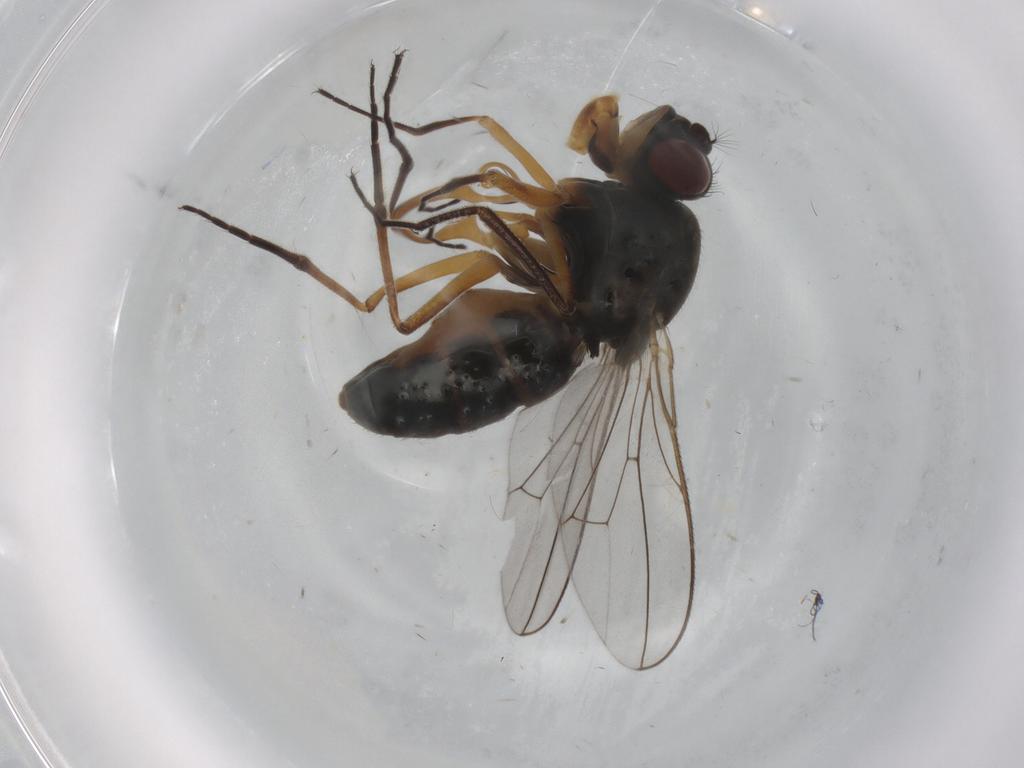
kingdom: Animalia
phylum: Arthropoda
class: Insecta
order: Diptera
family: Ephydridae
